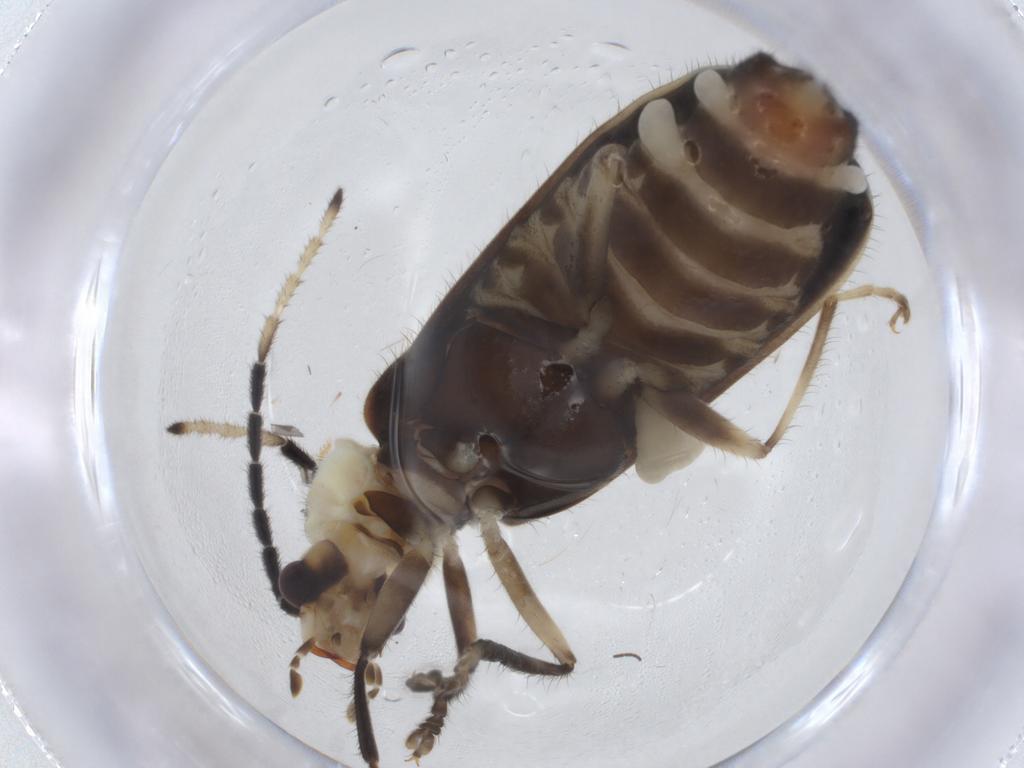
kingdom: Animalia
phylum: Arthropoda
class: Insecta
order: Coleoptera
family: Cantharidae
